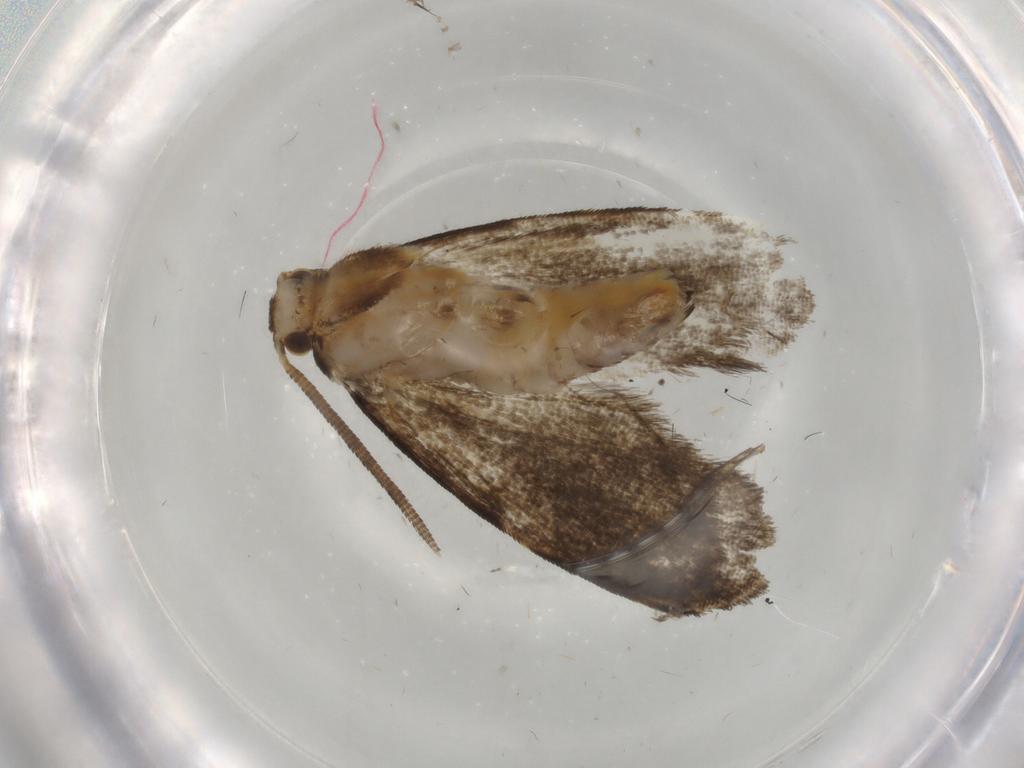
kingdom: Animalia
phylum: Arthropoda
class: Insecta
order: Lepidoptera
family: Dryadaulidae
